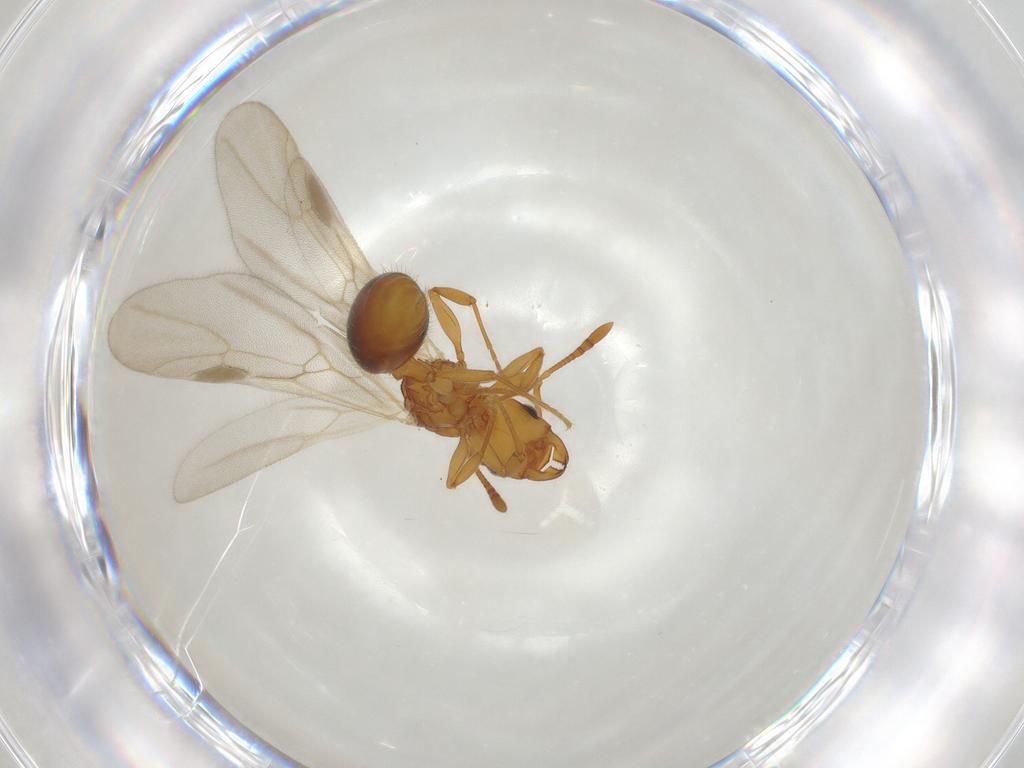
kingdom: Animalia
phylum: Arthropoda
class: Insecta
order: Hymenoptera
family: Formicidae
